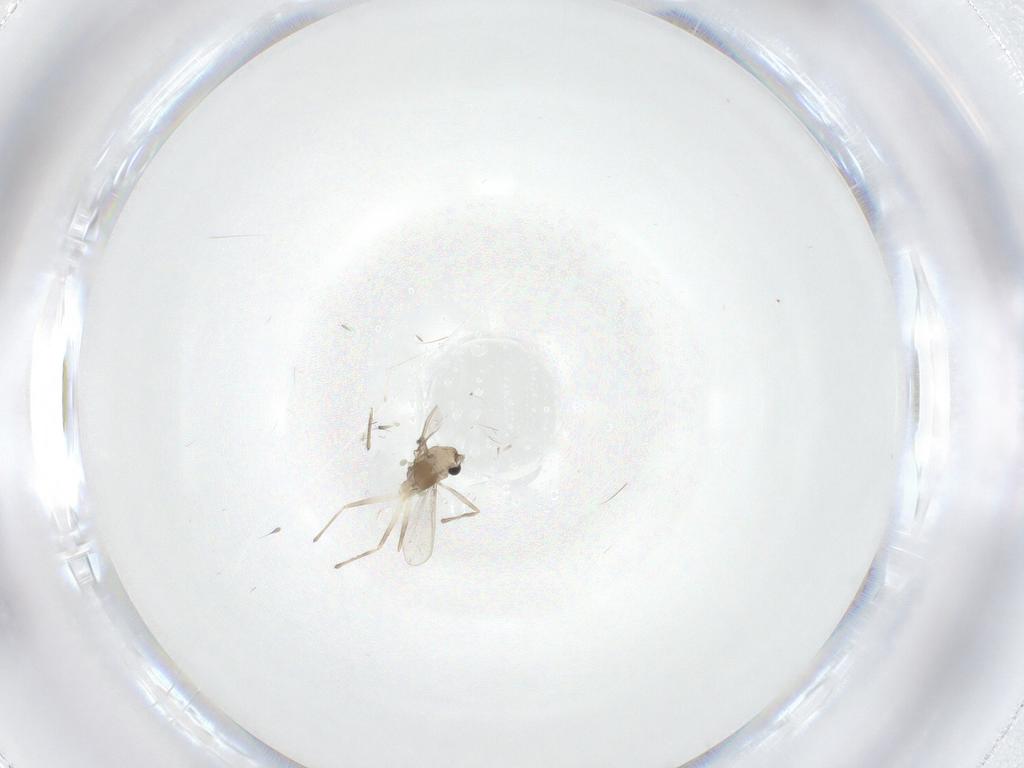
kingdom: Animalia
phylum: Arthropoda
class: Insecta
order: Diptera
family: Chironomidae
